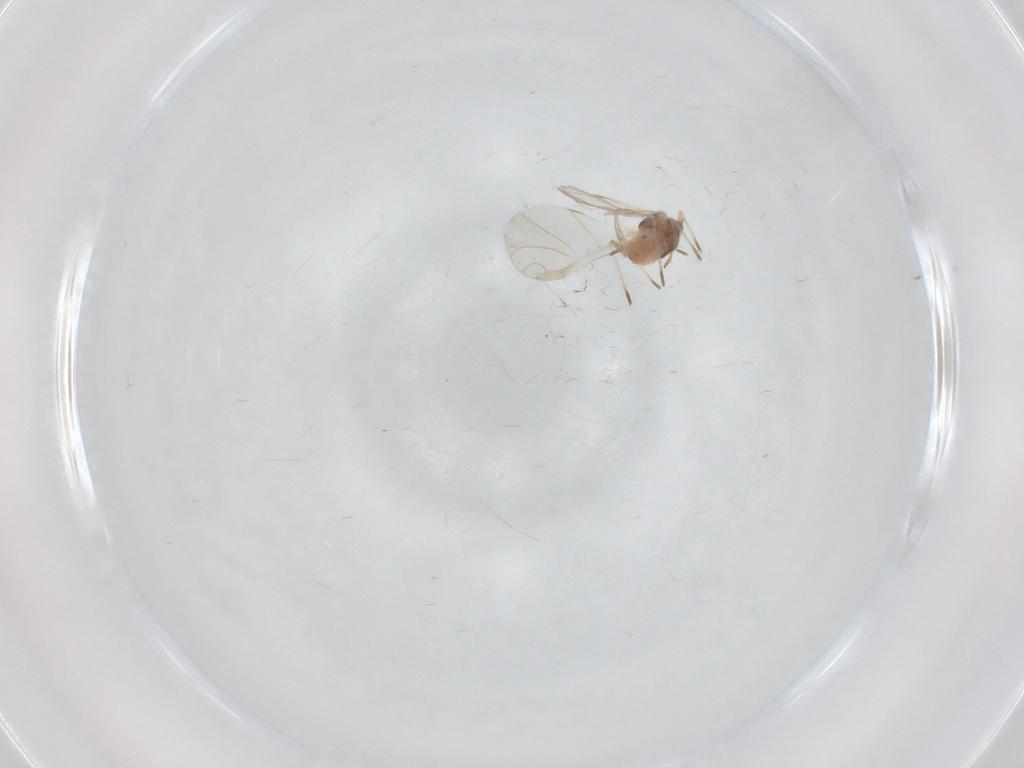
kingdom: Animalia
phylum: Arthropoda
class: Insecta
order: Hemiptera
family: Aphididae
